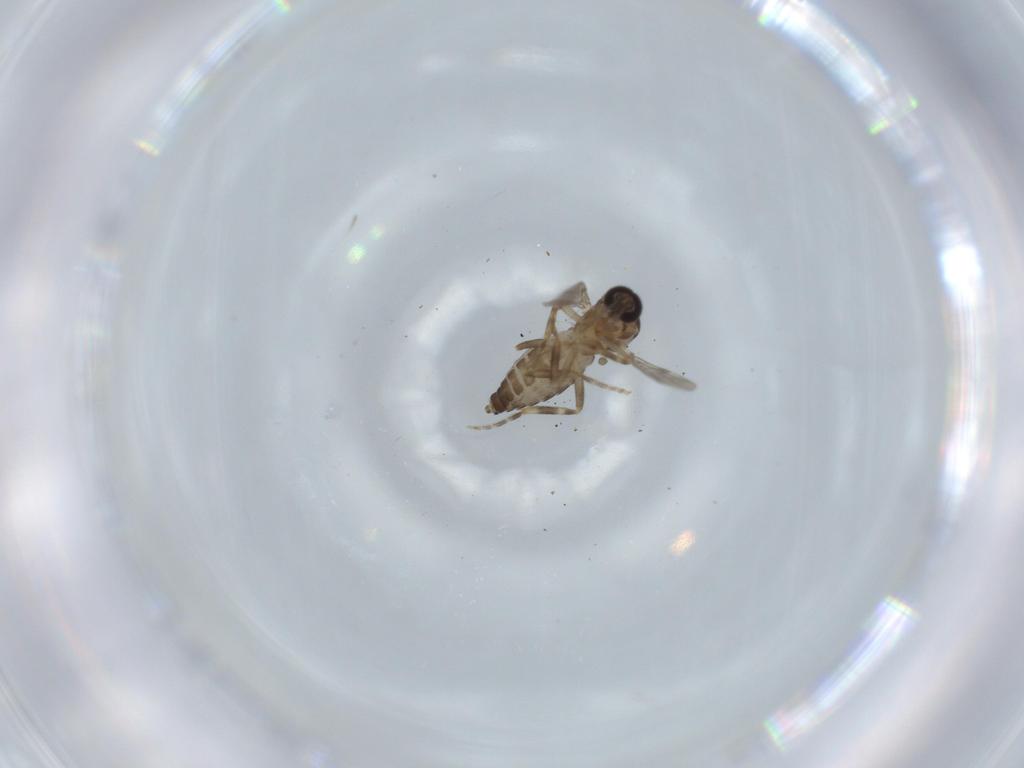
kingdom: Animalia
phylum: Arthropoda
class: Insecta
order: Diptera
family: Ceratopogonidae
